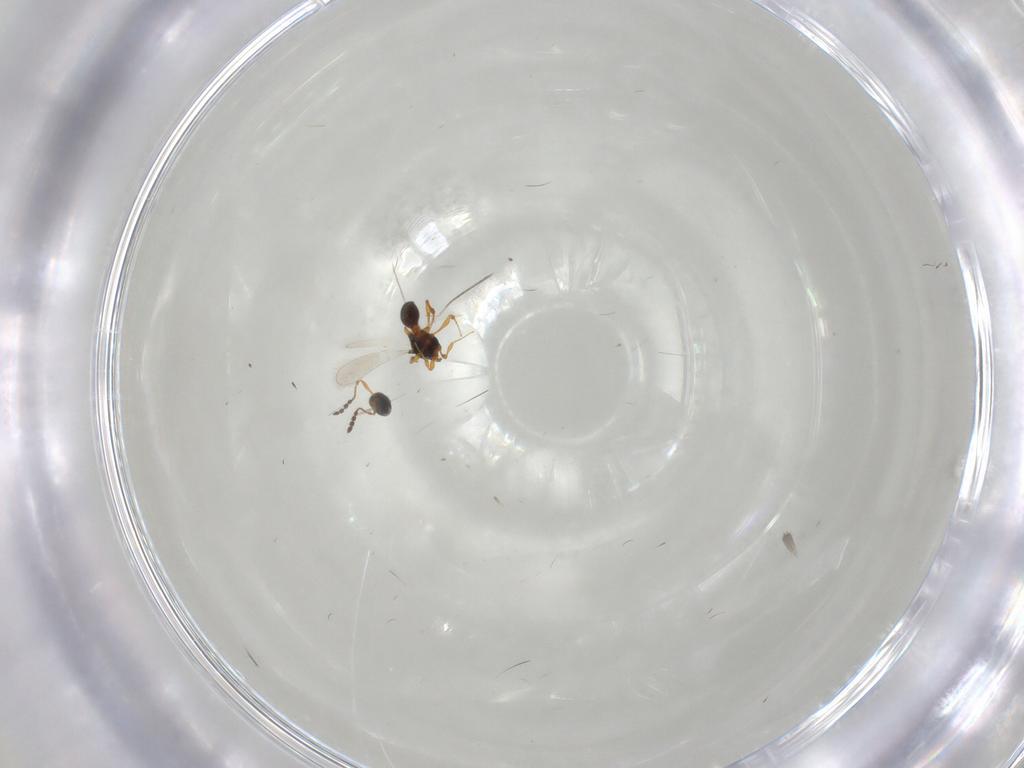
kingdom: Animalia
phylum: Arthropoda
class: Insecta
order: Hymenoptera
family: Platygastridae
